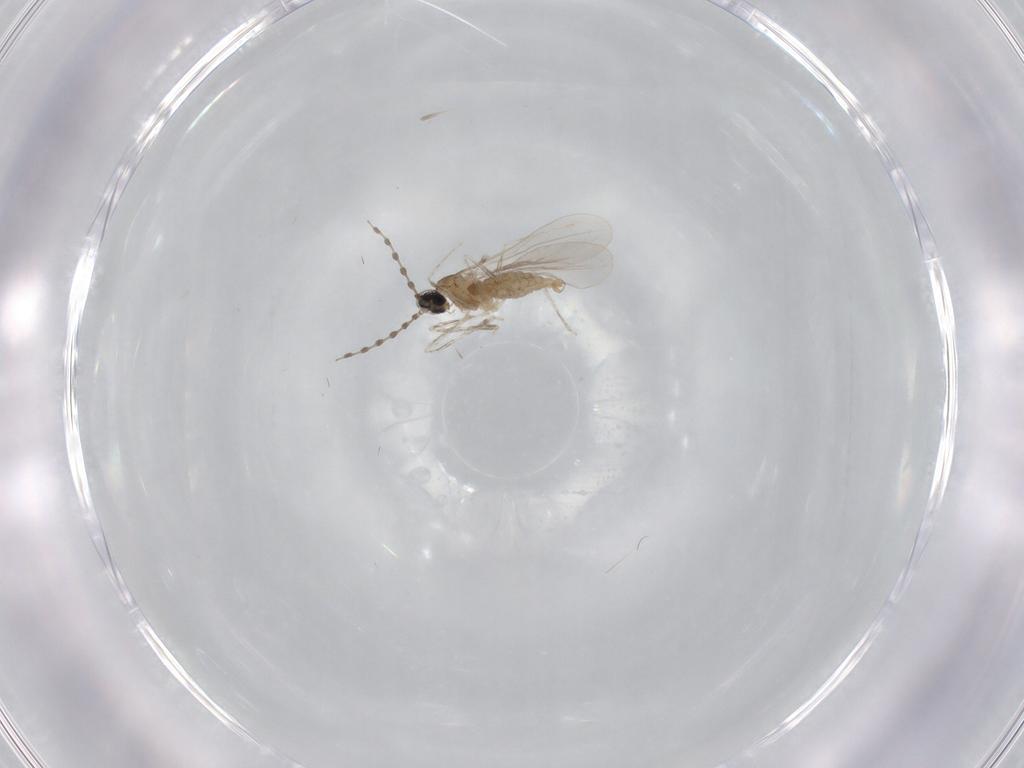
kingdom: Animalia
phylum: Arthropoda
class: Insecta
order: Diptera
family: Cecidomyiidae
